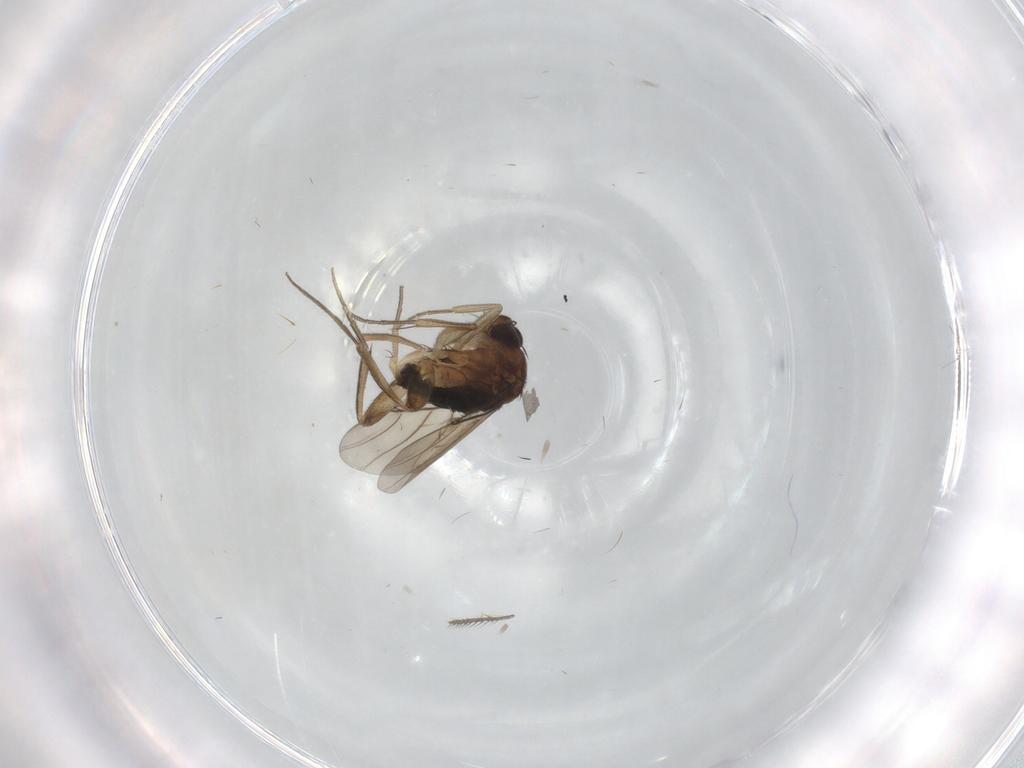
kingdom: Animalia
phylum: Arthropoda
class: Insecta
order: Diptera
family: Phoridae
